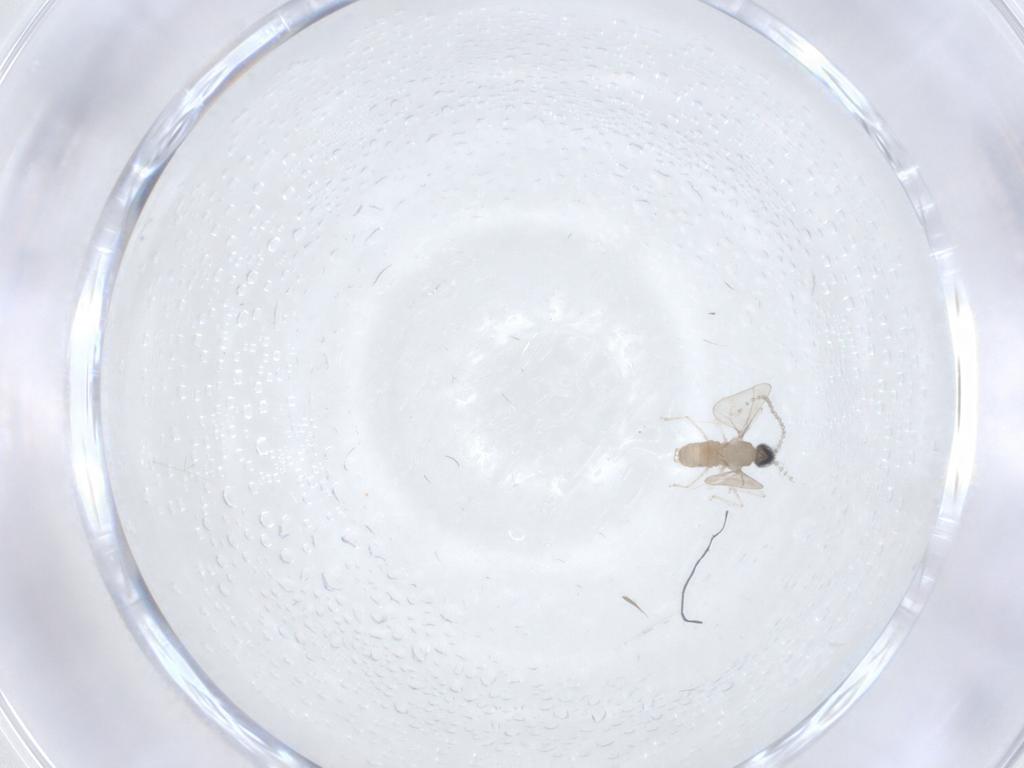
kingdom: Animalia
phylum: Arthropoda
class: Insecta
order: Diptera
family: Cecidomyiidae
